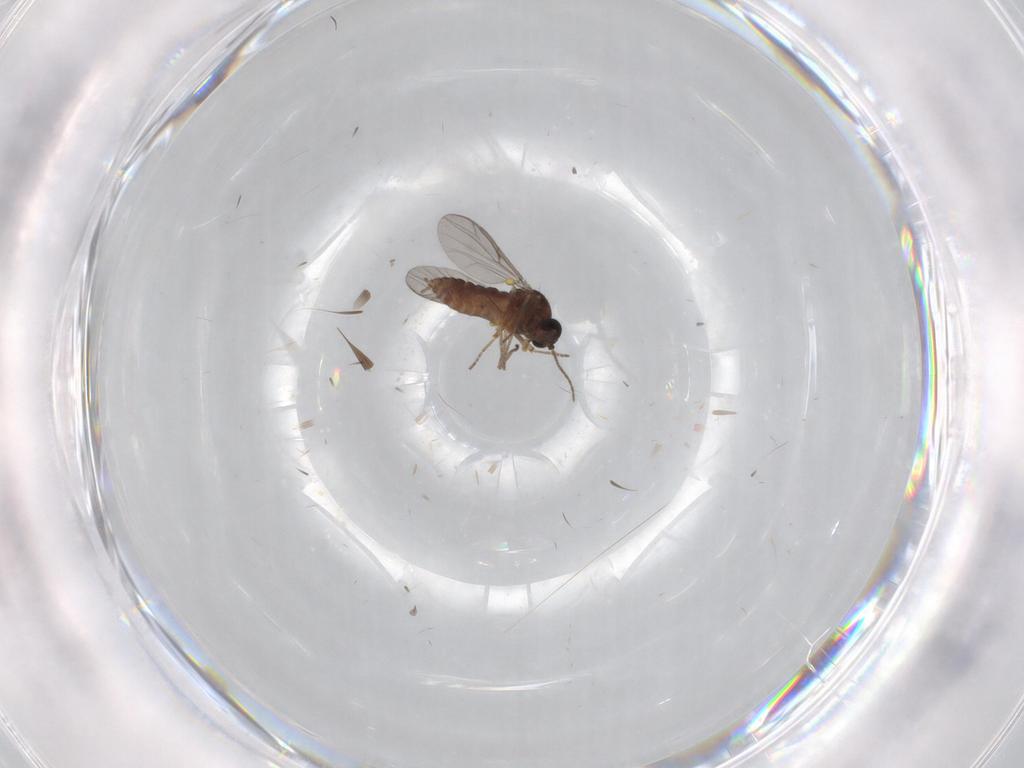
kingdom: Animalia
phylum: Arthropoda
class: Insecta
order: Diptera
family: Ceratopogonidae
